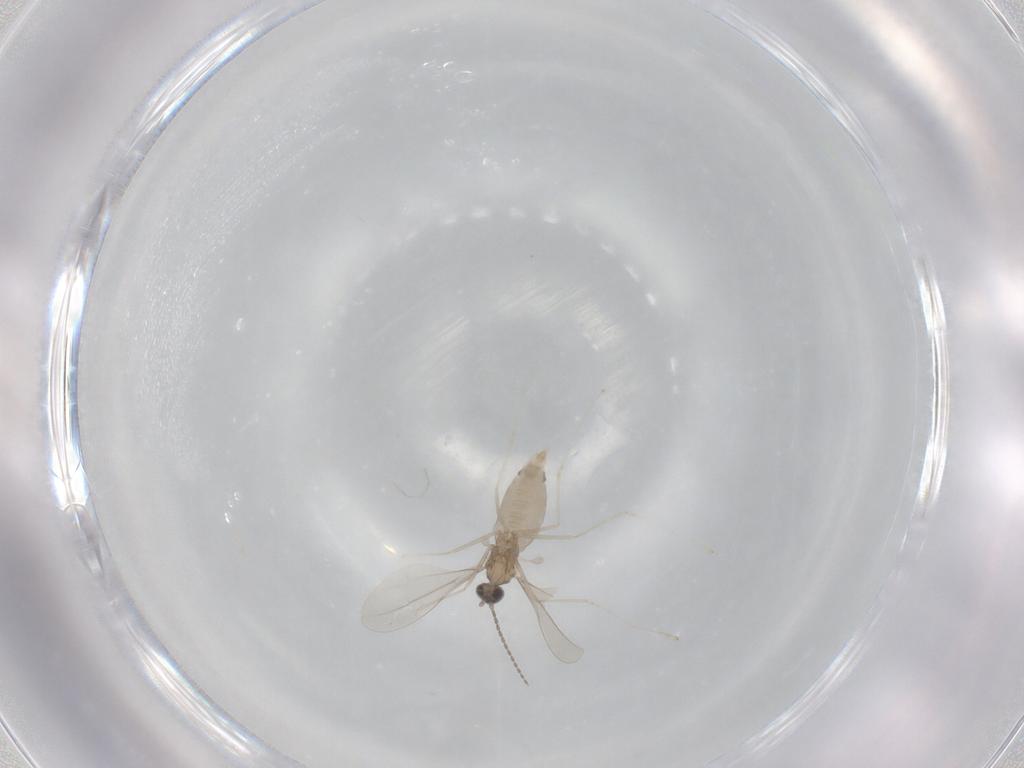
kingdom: Animalia
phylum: Arthropoda
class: Insecta
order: Diptera
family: Cecidomyiidae
